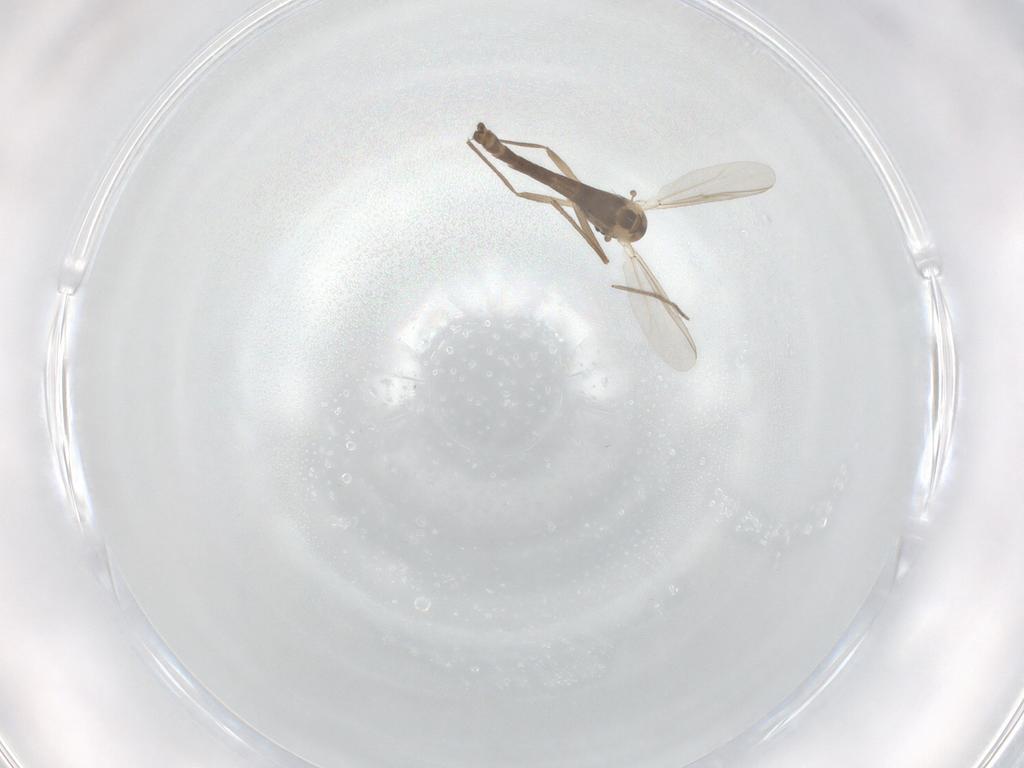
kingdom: Animalia
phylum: Arthropoda
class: Insecta
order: Diptera
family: Chironomidae
